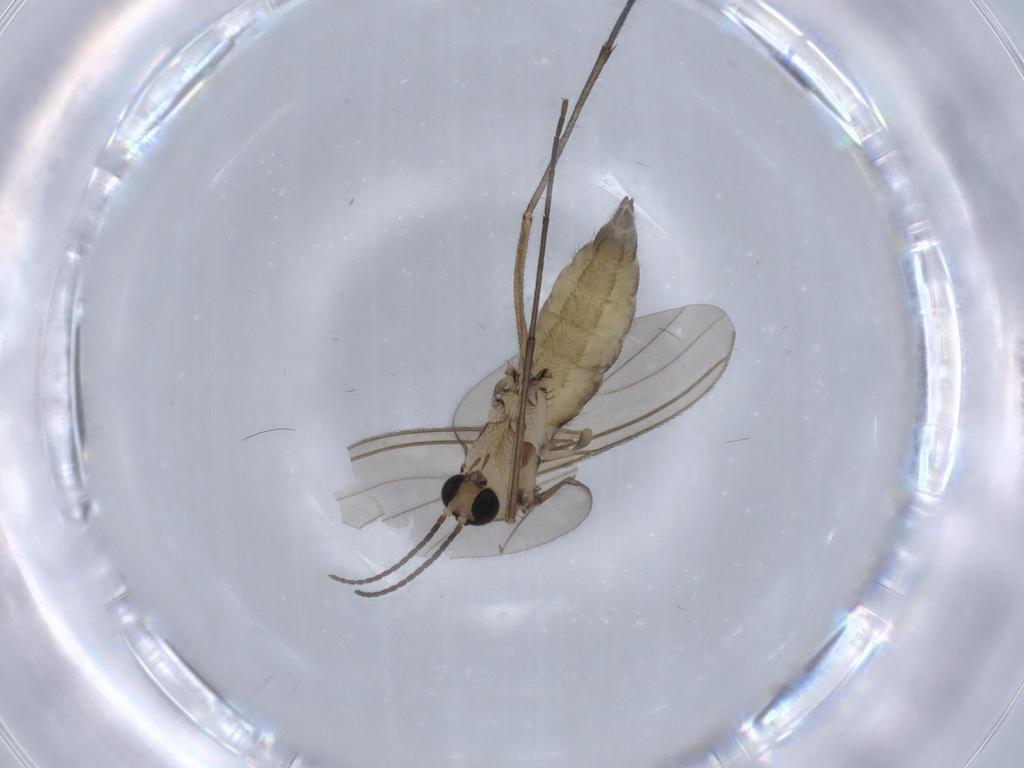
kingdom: Animalia
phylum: Arthropoda
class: Insecta
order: Diptera
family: Sciaridae
